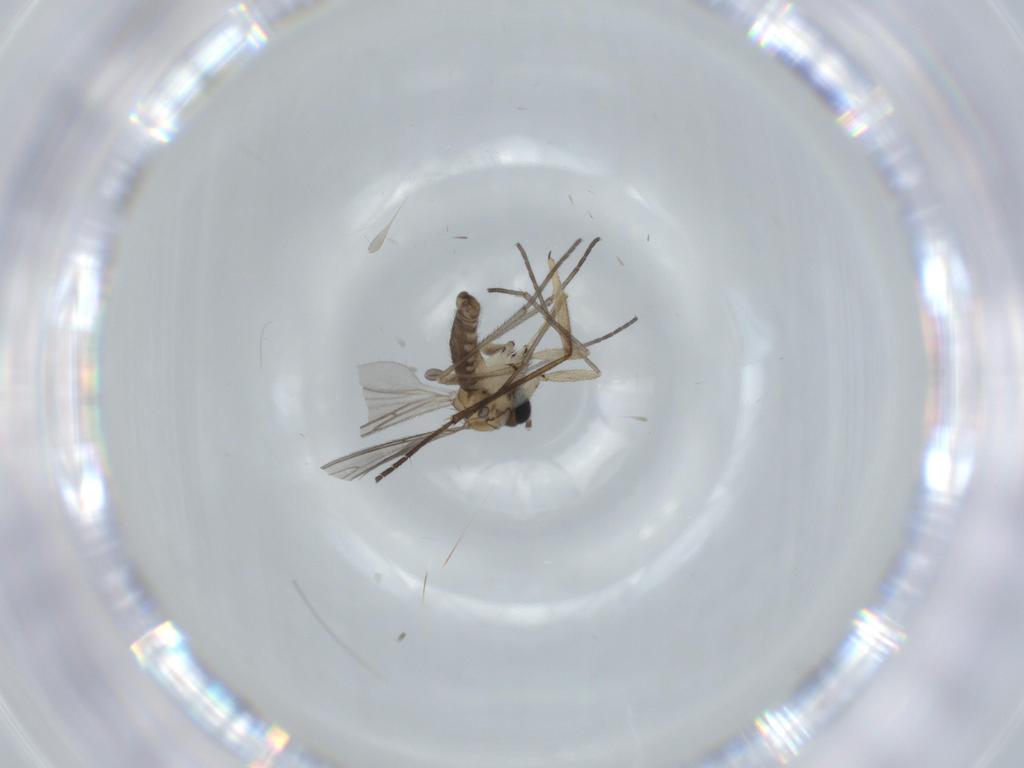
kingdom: Animalia
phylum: Arthropoda
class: Insecta
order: Diptera
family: Sciaridae
